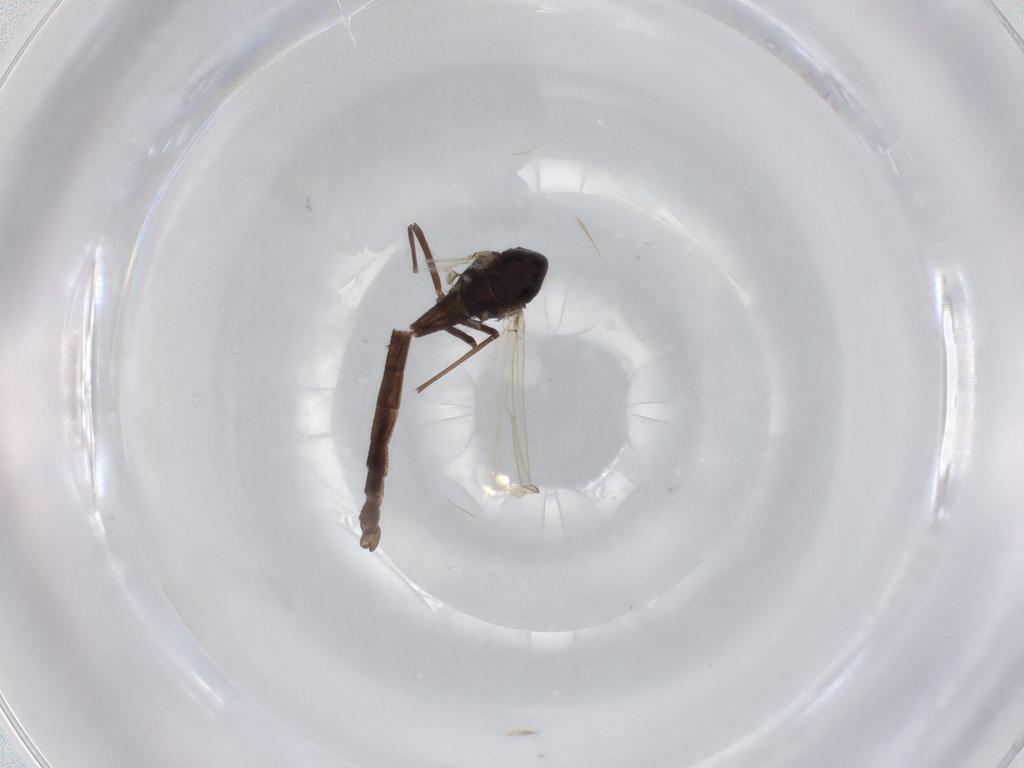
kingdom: Animalia
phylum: Arthropoda
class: Insecta
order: Diptera
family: Chironomidae
